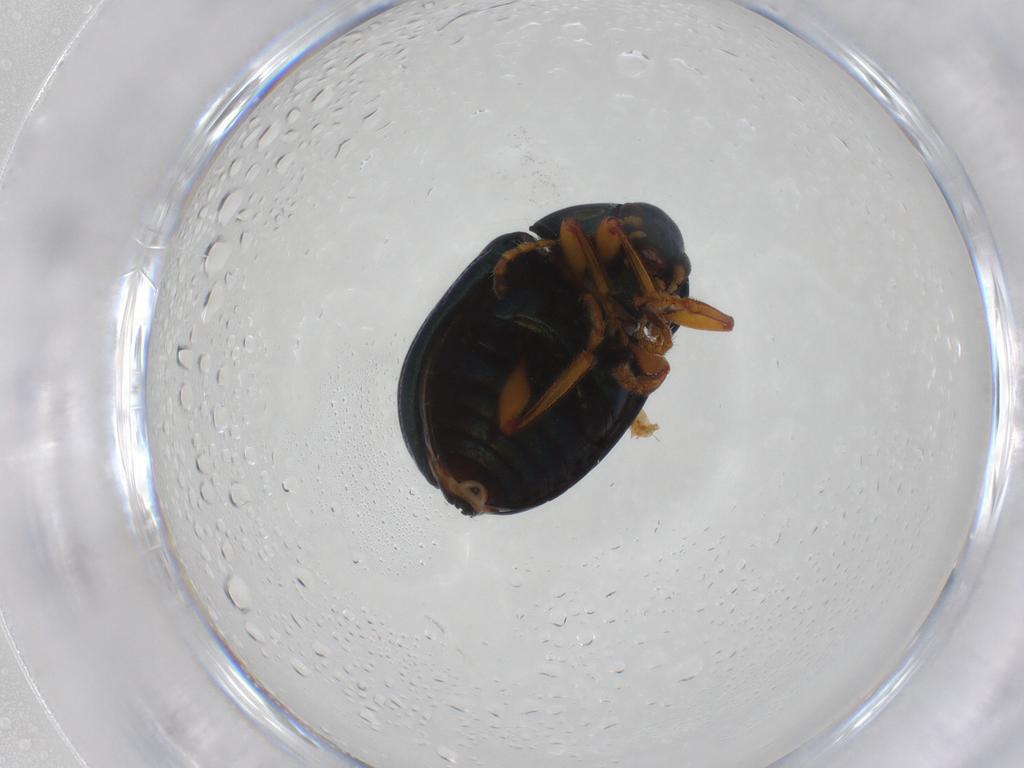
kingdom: Animalia
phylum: Arthropoda
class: Insecta
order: Coleoptera
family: Chrysomelidae
